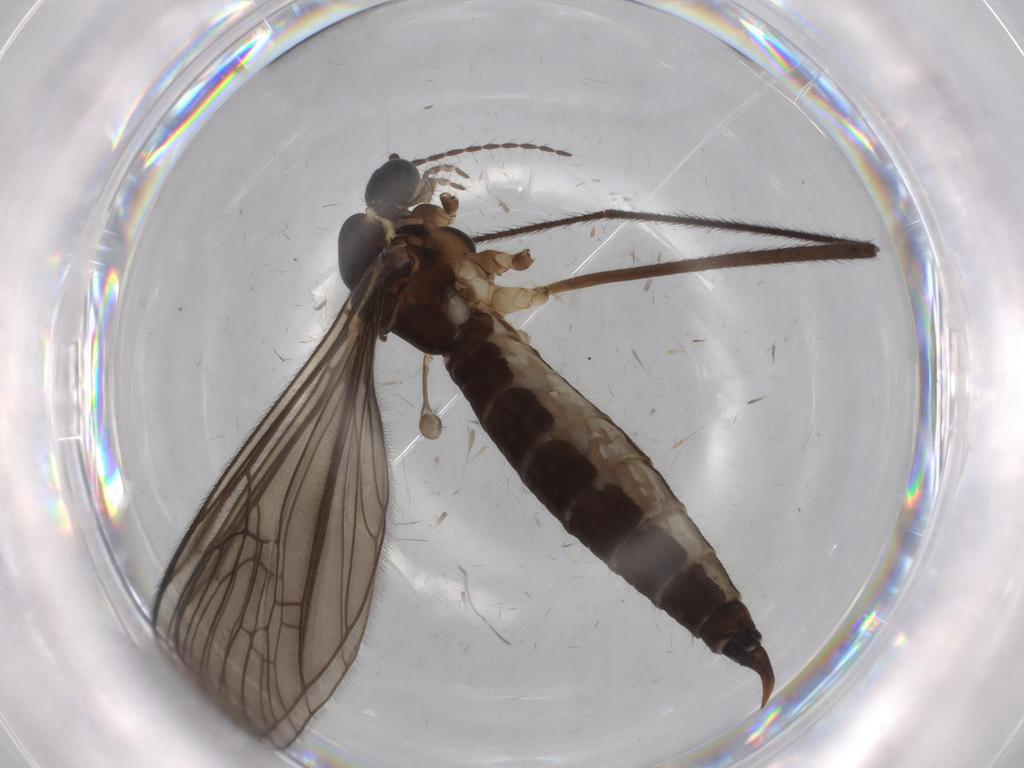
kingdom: Animalia
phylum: Arthropoda
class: Insecta
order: Diptera
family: Limoniidae
